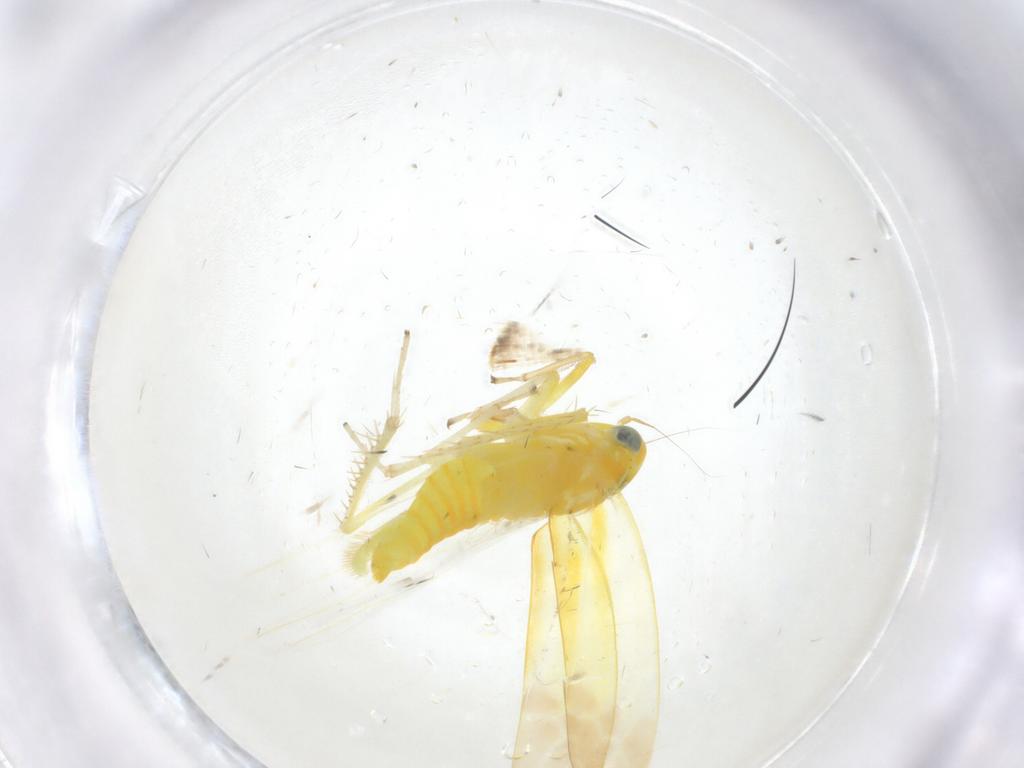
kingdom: Animalia
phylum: Arthropoda
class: Insecta
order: Hemiptera
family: Cicadellidae
